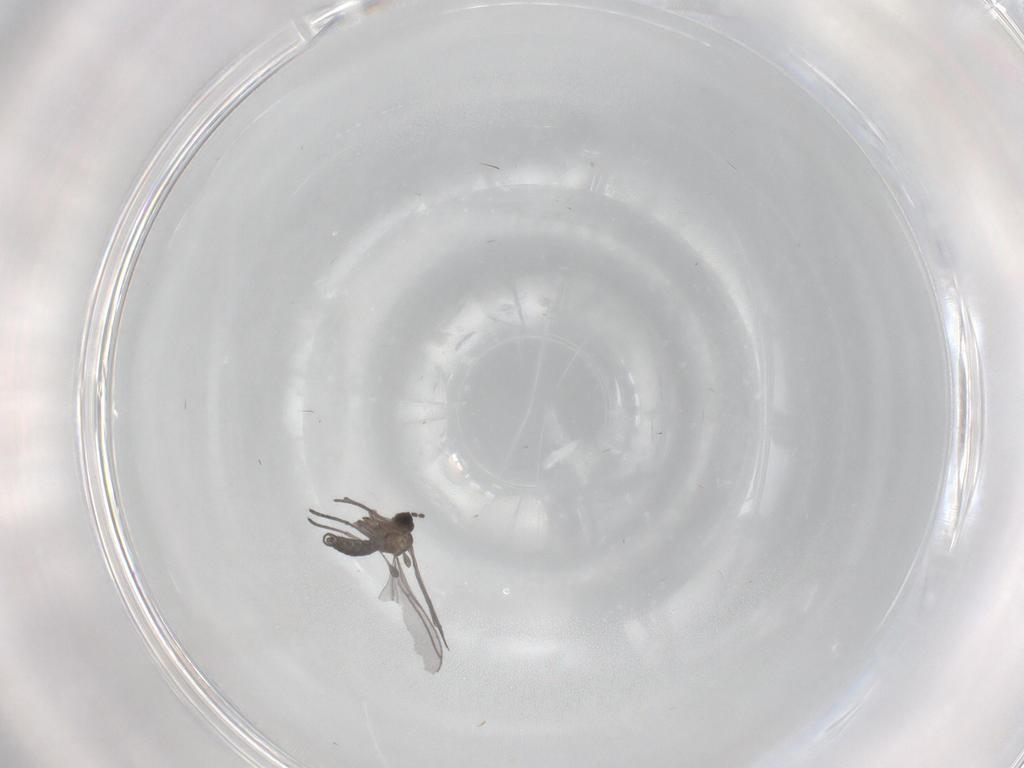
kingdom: Animalia
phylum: Arthropoda
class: Insecta
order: Diptera
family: Cecidomyiidae
